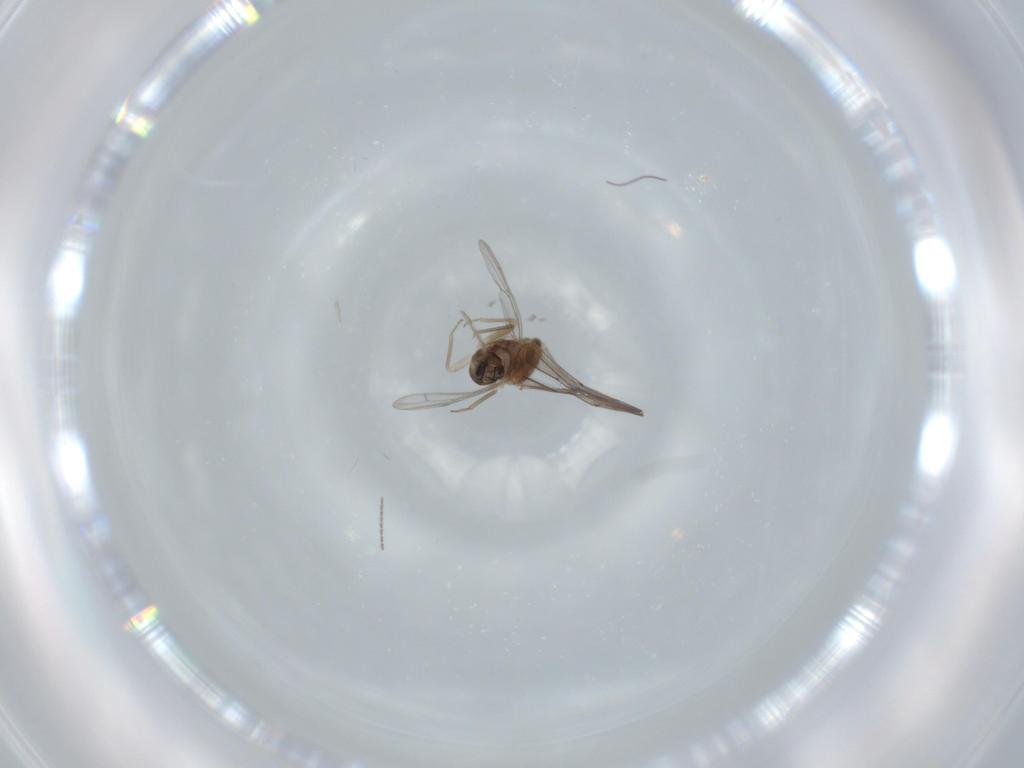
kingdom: Animalia
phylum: Arthropoda
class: Insecta
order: Psocodea
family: Ectopsocidae
